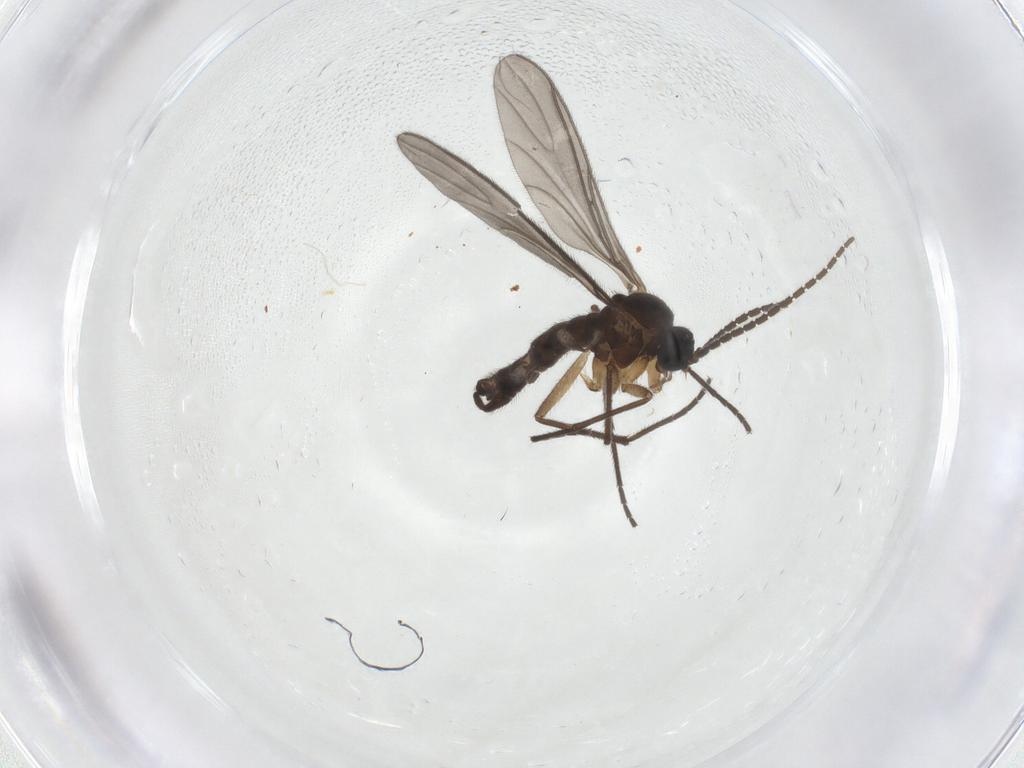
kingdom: Animalia
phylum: Arthropoda
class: Insecta
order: Diptera
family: Sciaridae
